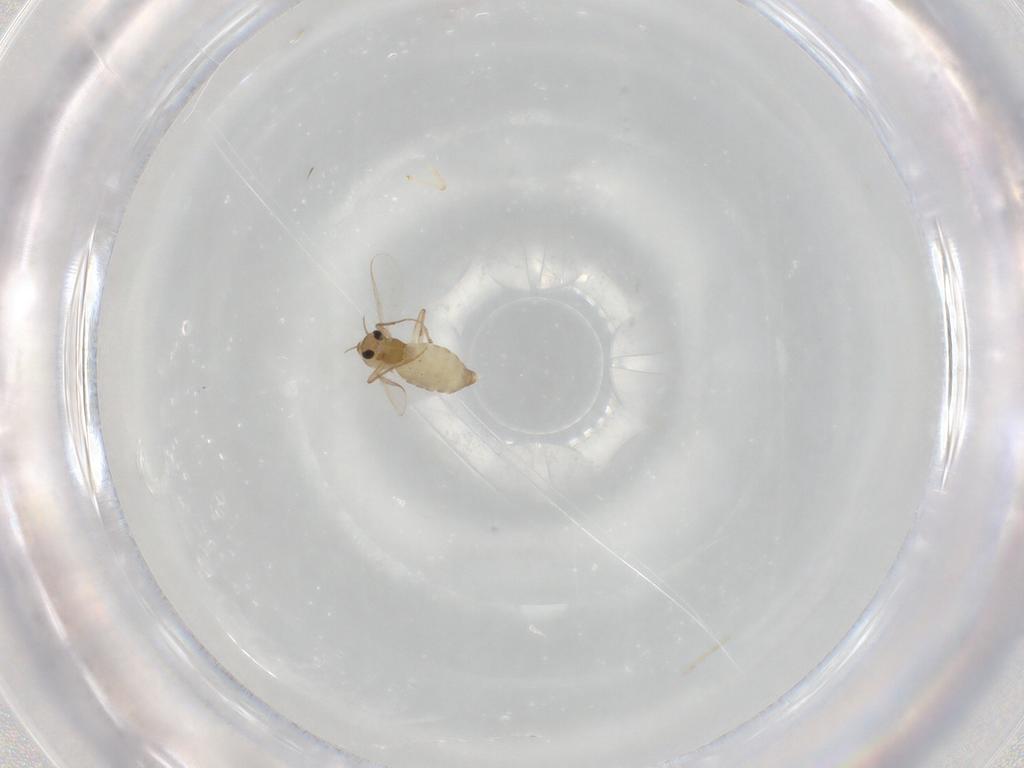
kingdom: Animalia
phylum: Arthropoda
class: Insecta
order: Diptera
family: Chironomidae
